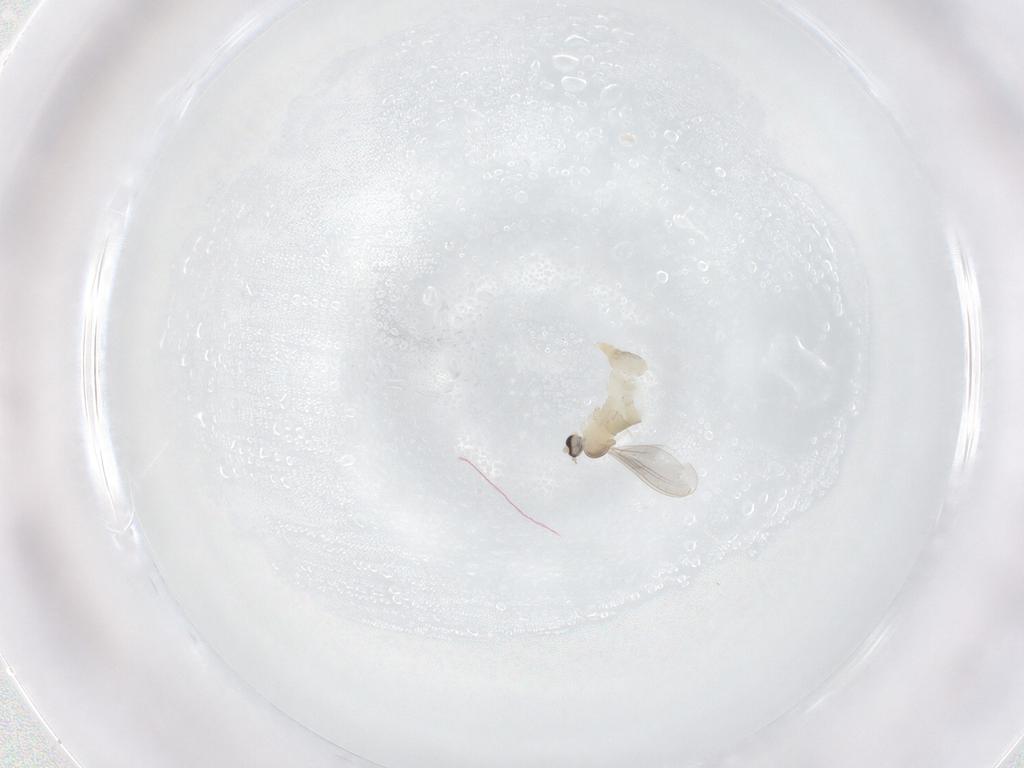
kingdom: Animalia
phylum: Arthropoda
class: Insecta
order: Diptera
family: Cecidomyiidae
